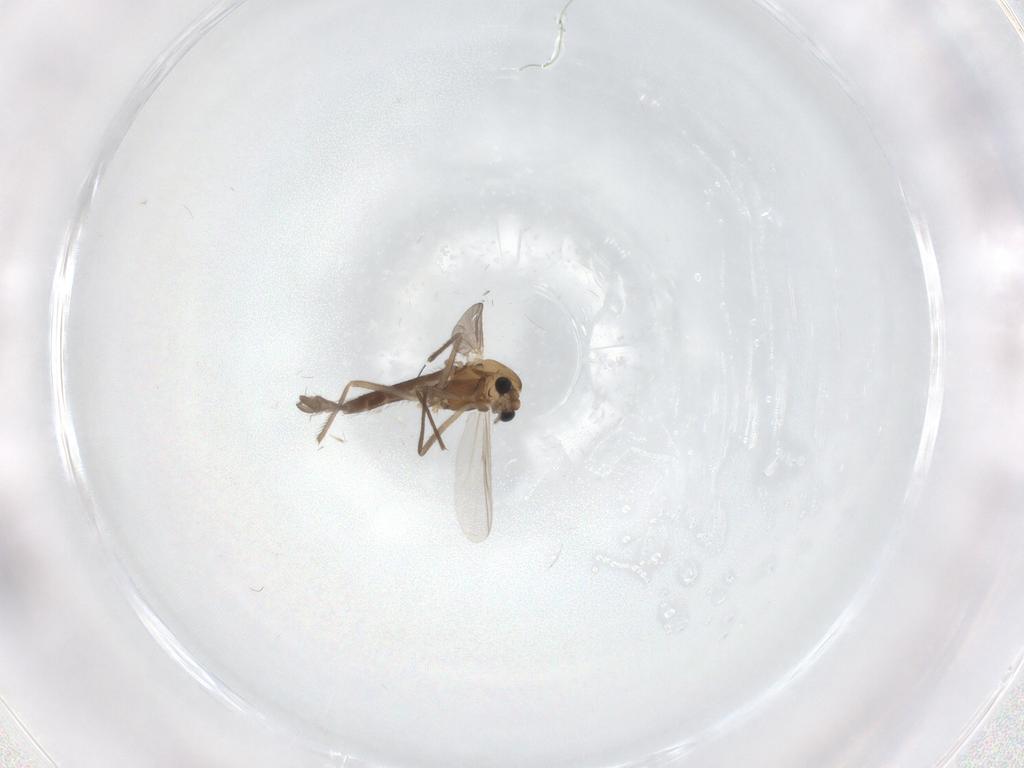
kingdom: Animalia
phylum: Arthropoda
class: Insecta
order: Diptera
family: Chironomidae
